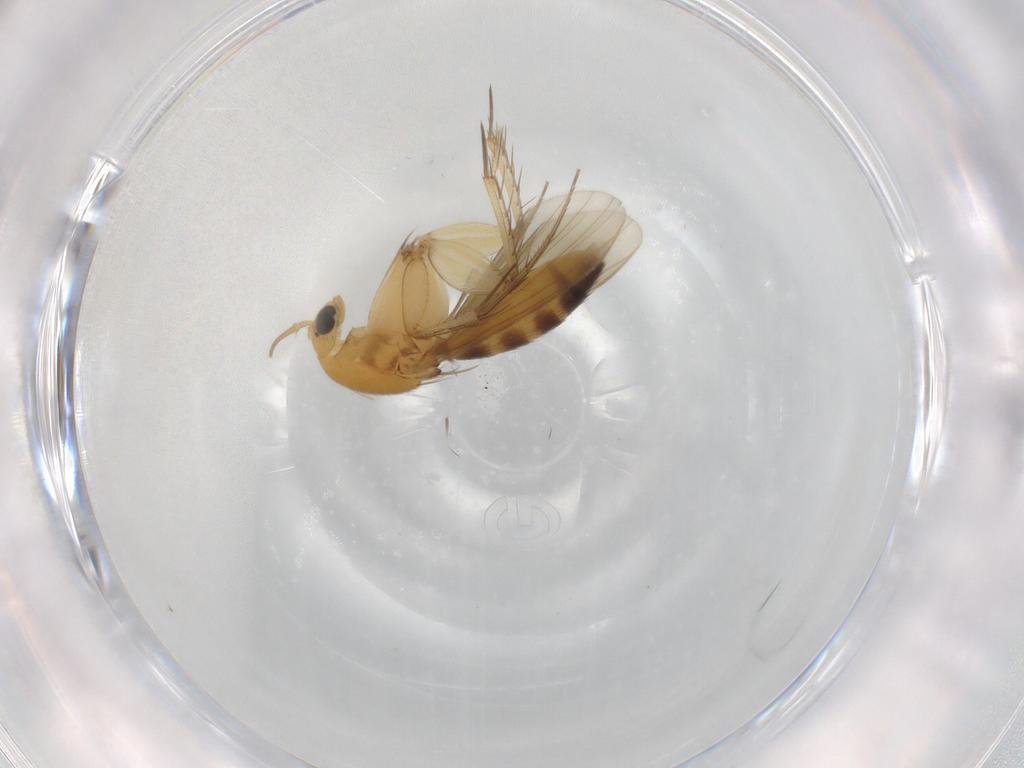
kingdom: Animalia
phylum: Arthropoda
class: Insecta
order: Diptera
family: Mycetophilidae
